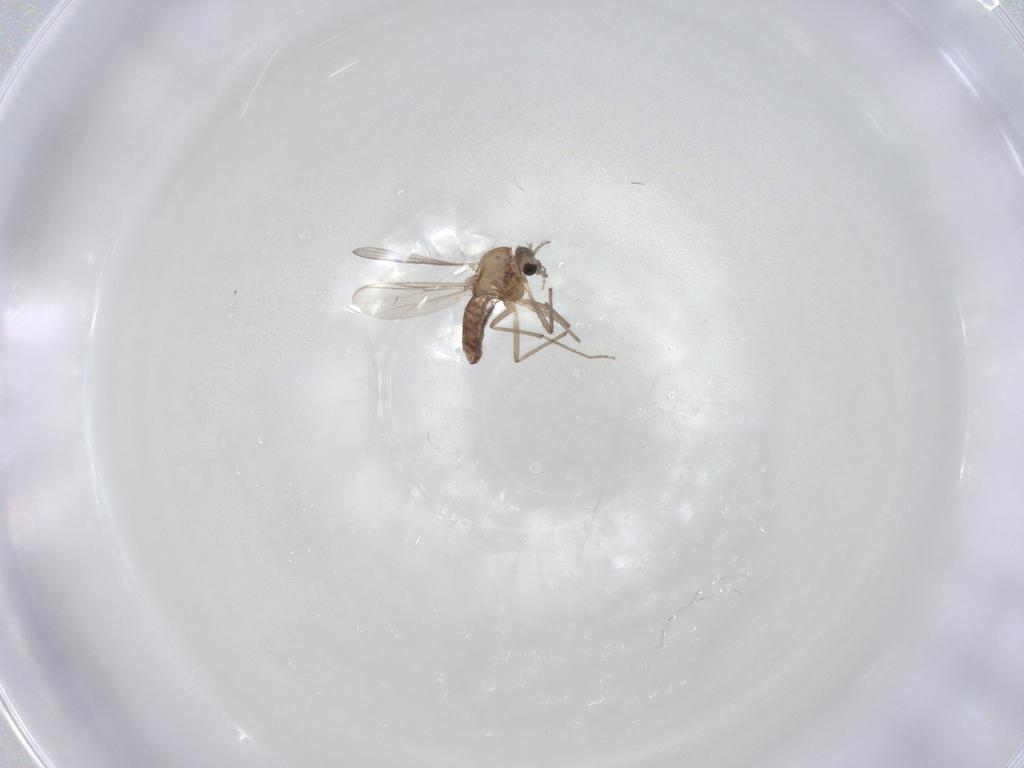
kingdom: Animalia
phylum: Arthropoda
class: Insecta
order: Diptera
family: Chironomidae
